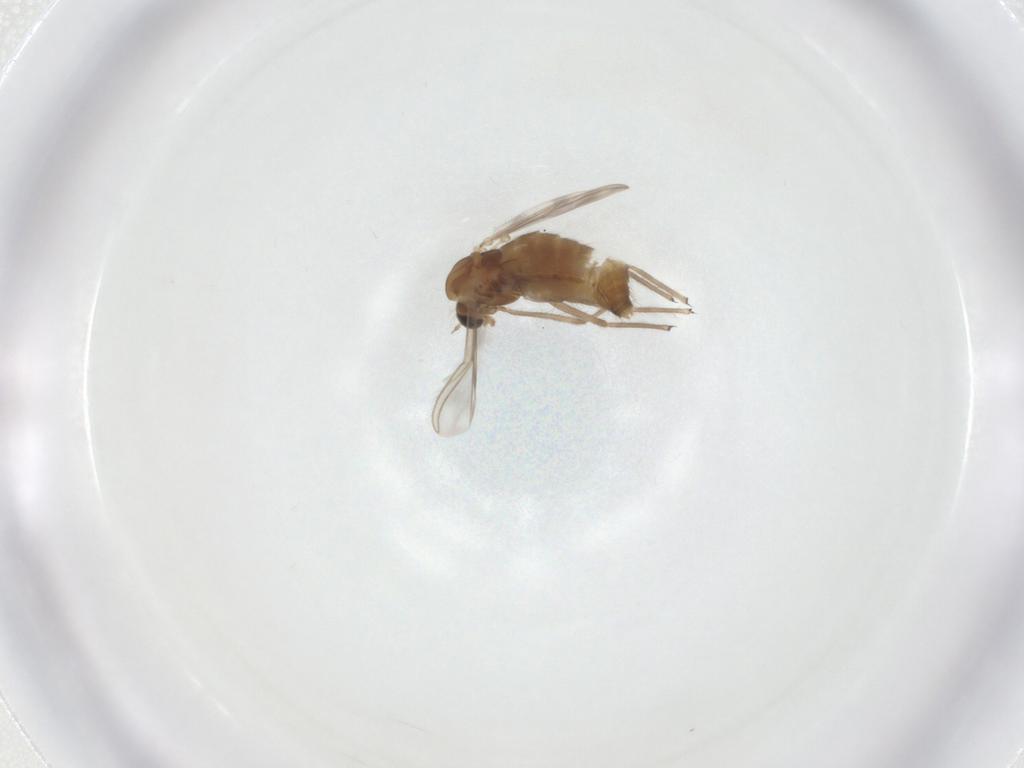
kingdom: Animalia
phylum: Arthropoda
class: Insecta
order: Diptera
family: Chironomidae
